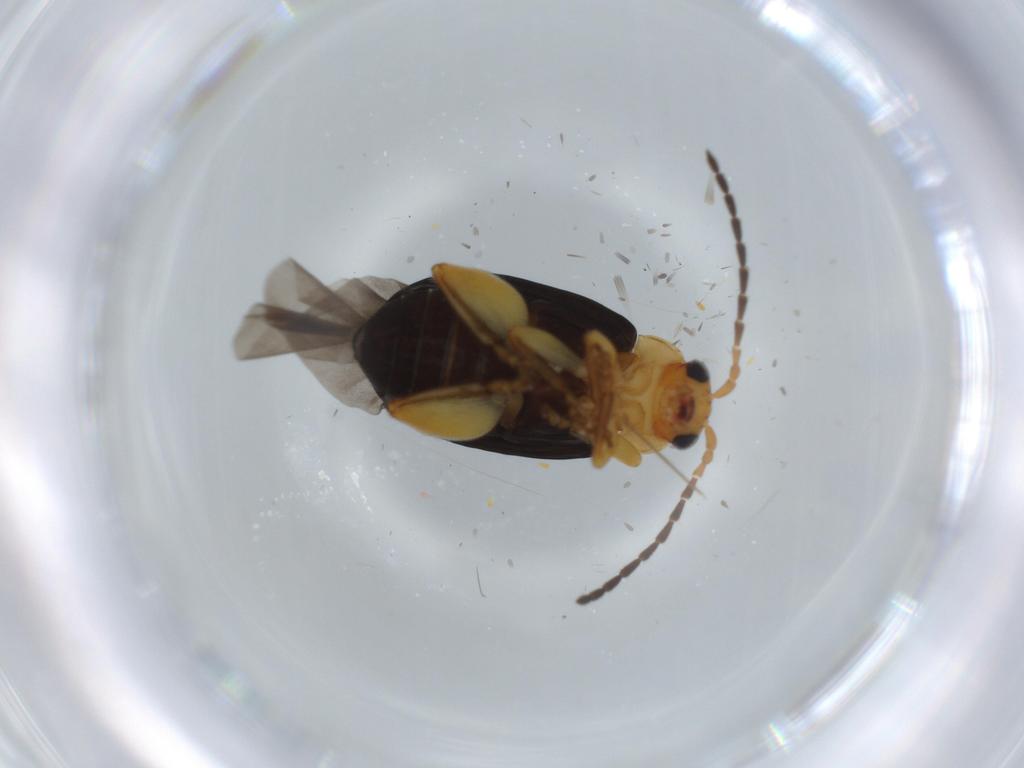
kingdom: Animalia
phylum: Arthropoda
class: Insecta
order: Coleoptera
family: Chrysomelidae
